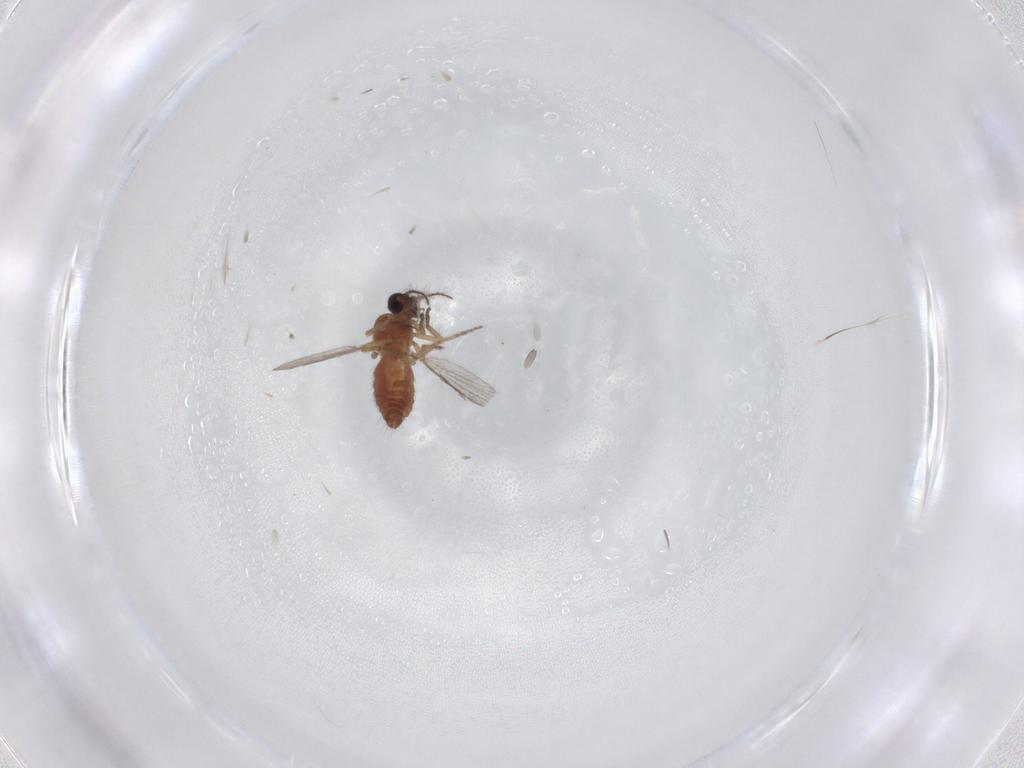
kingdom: Animalia
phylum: Arthropoda
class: Insecta
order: Diptera
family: Ceratopogonidae
